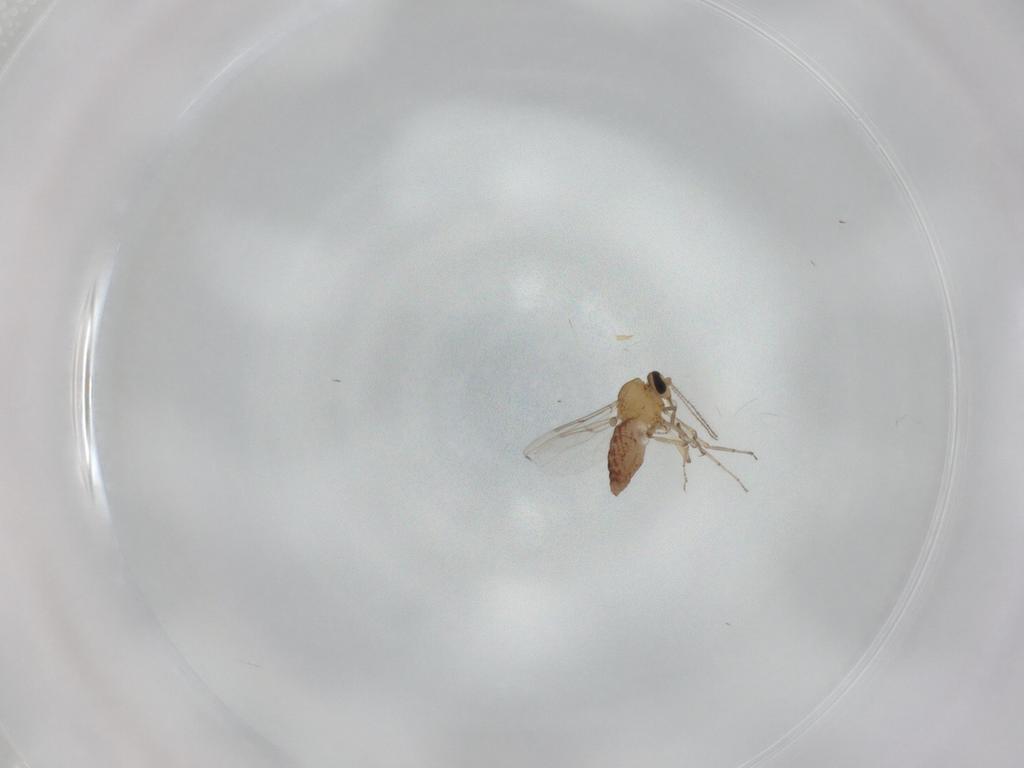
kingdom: Animalia
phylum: Arthropoda
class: Insecta
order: Diptera
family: Ceratopogonidae
